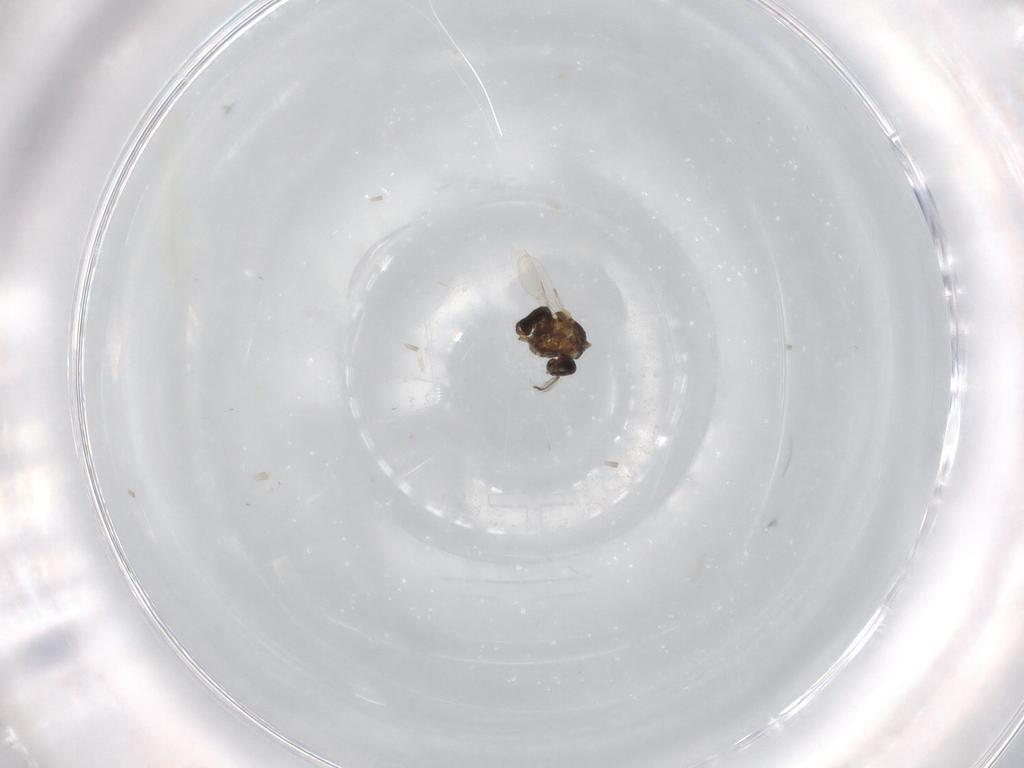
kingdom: Animalia
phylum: Arthropoda
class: Insecta
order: Diptera
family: Ceratopogonidae
